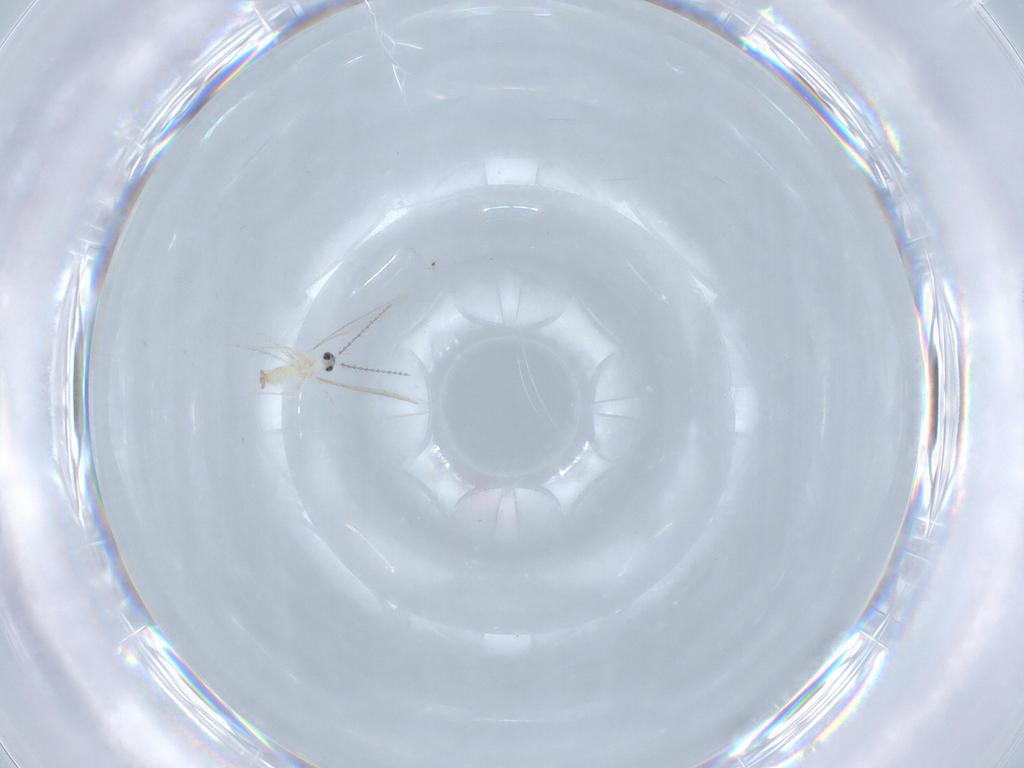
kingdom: Animalia
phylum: Arthropoda
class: Insecta
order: Diptera
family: Cecidomyiidae
